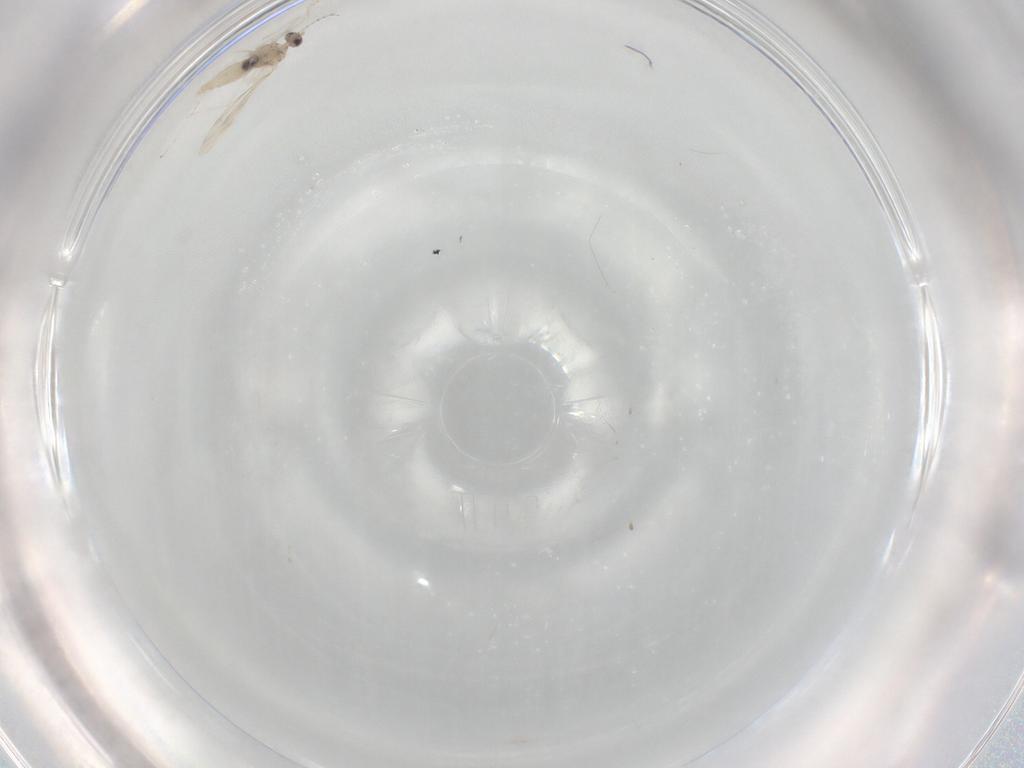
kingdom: Animalia
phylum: Arthropoda
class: Insecta
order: Diptera
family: Cecidomyiidae
